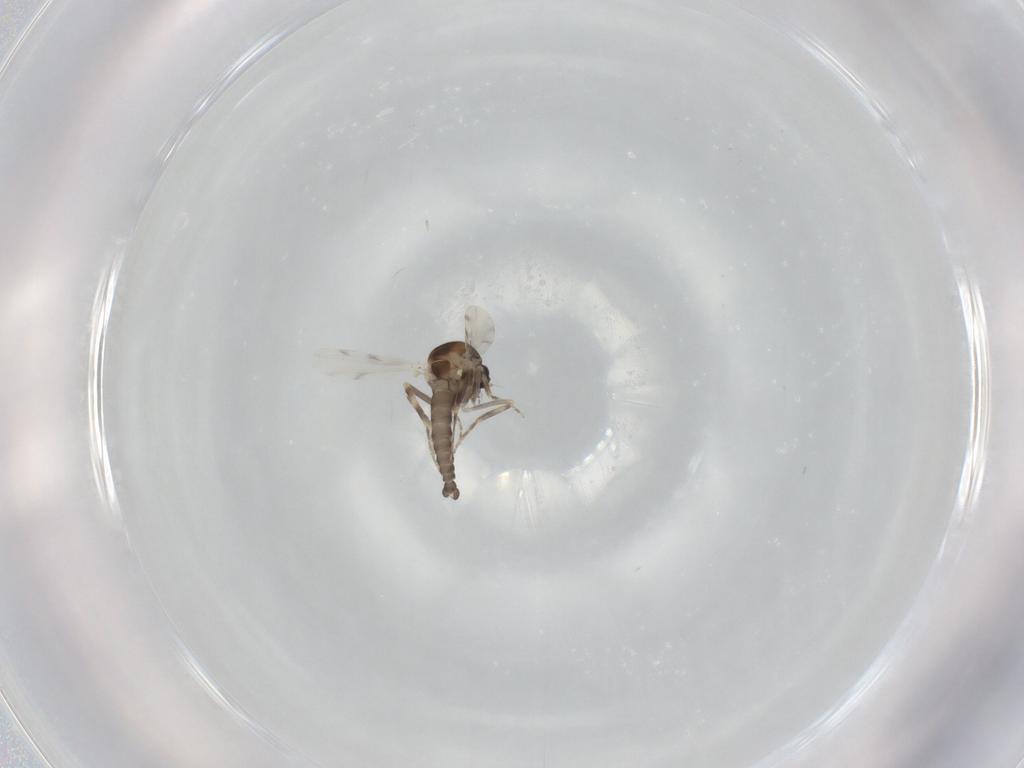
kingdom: Animalia
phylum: Arthropoda
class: Insecta
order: Diptera
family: Ceratopogonidae
